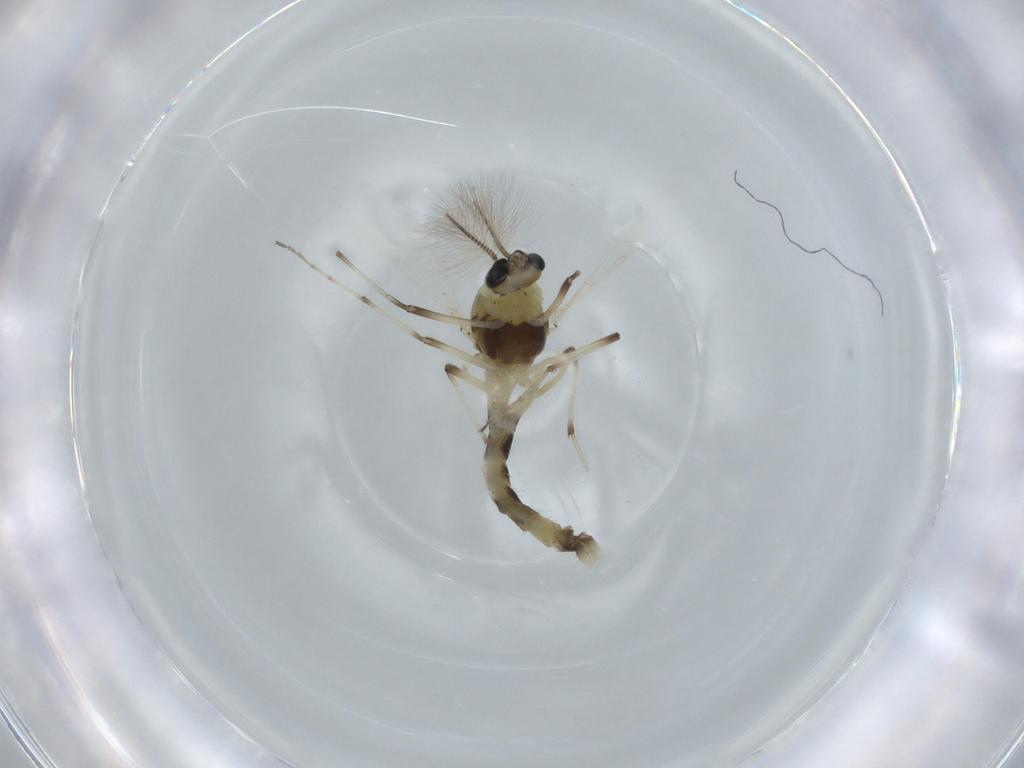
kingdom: Animalia
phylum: Arthropoda
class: Insecta
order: Diptera
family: Chironomidae
